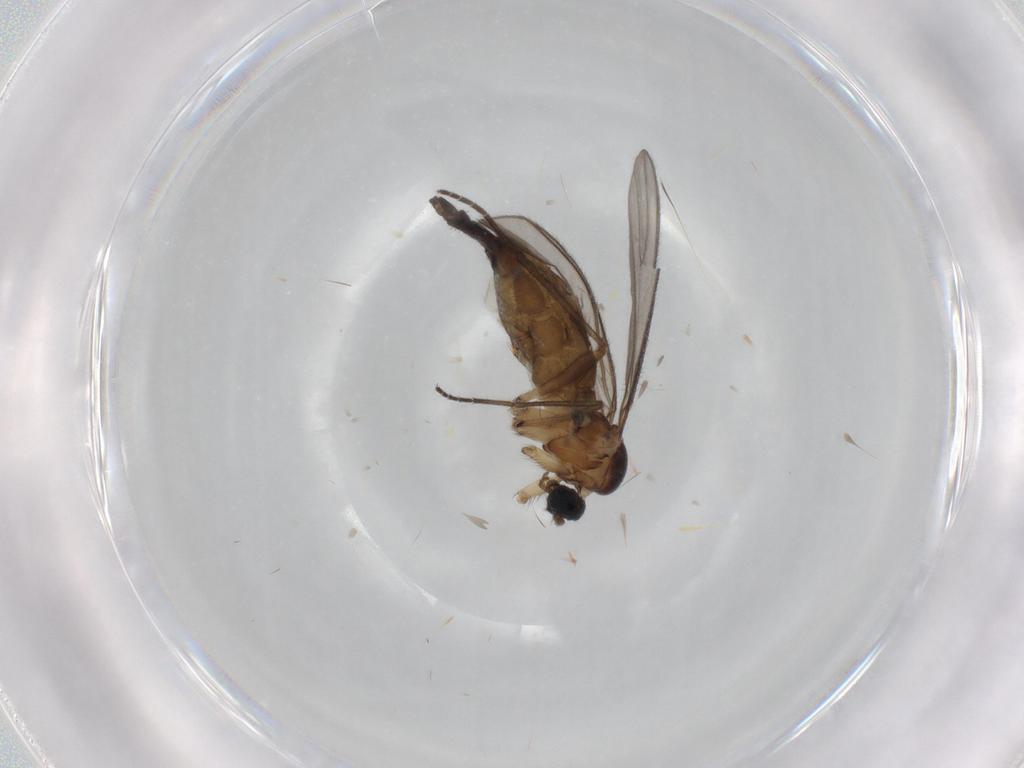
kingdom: Animalia
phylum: Arthropoda
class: Insecta
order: Diptera
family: Sciaridae
